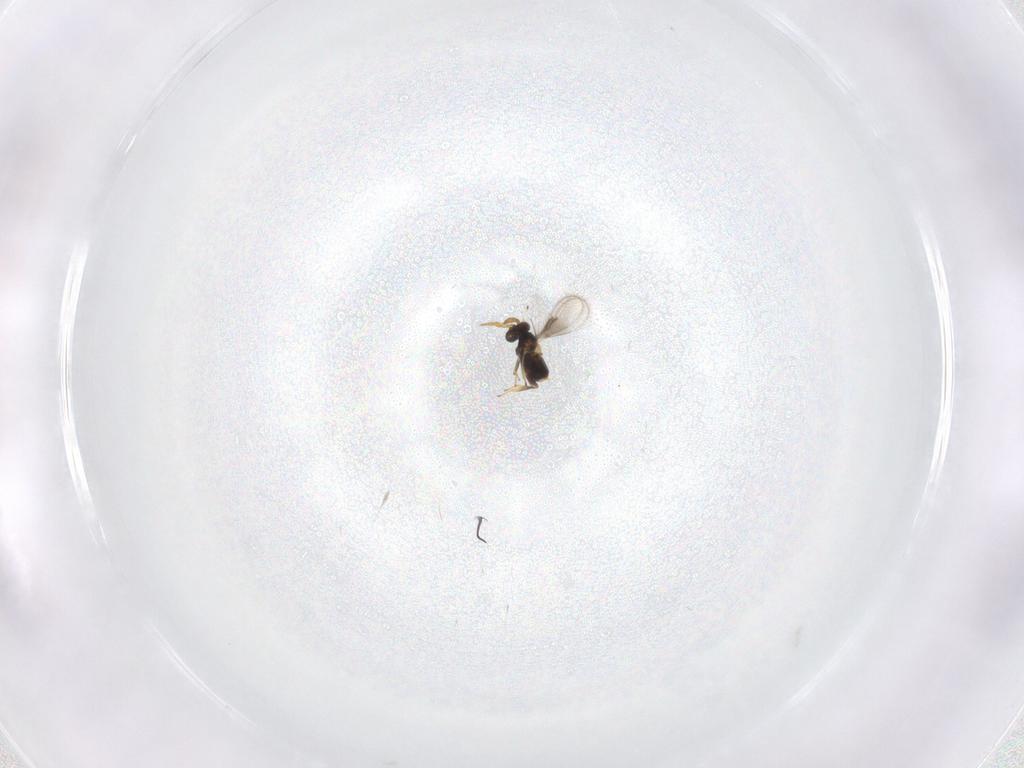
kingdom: Animalia
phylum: Arthropoda
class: Insecta
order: Hymenoptera
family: Aphelinidae
